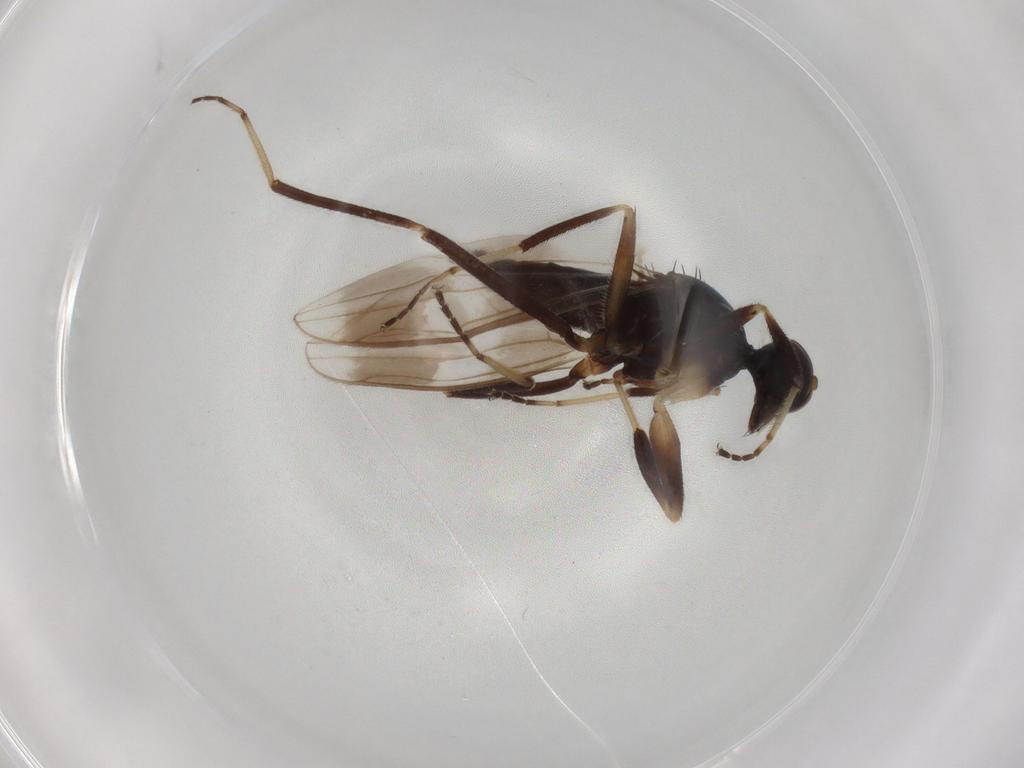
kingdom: Animalia
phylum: Arthropoda
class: Insecta
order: Diptera
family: Hybotidae
